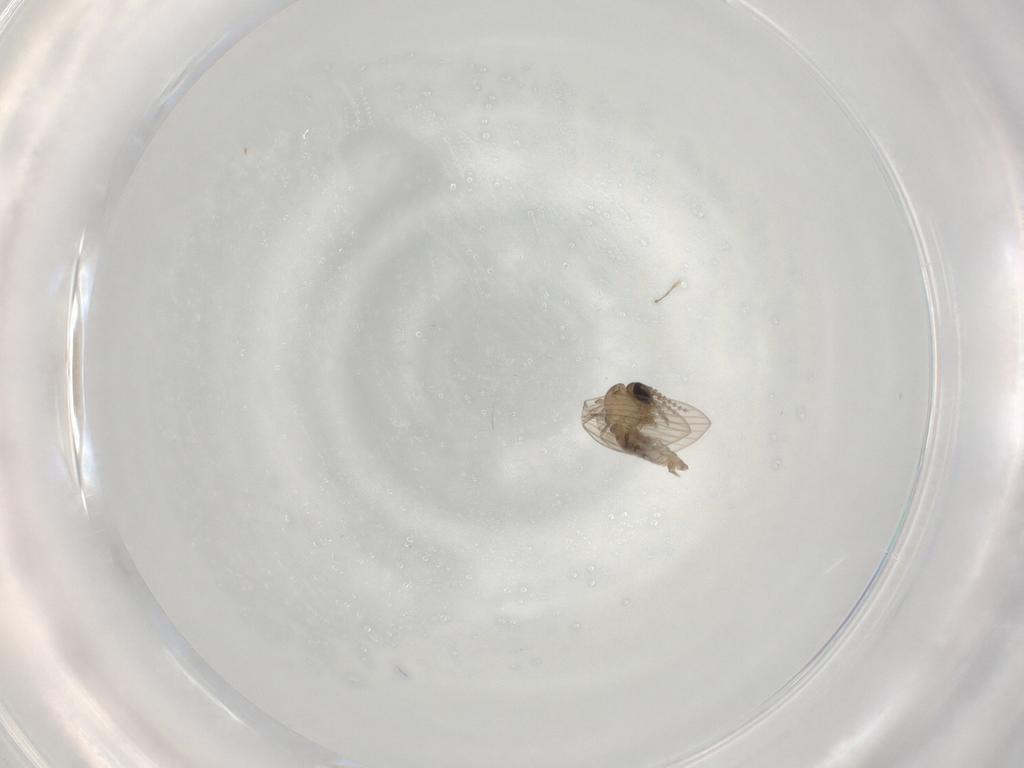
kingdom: Animalia
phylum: Arthropoda
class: Insecta
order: Diptera
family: Psychodidae
